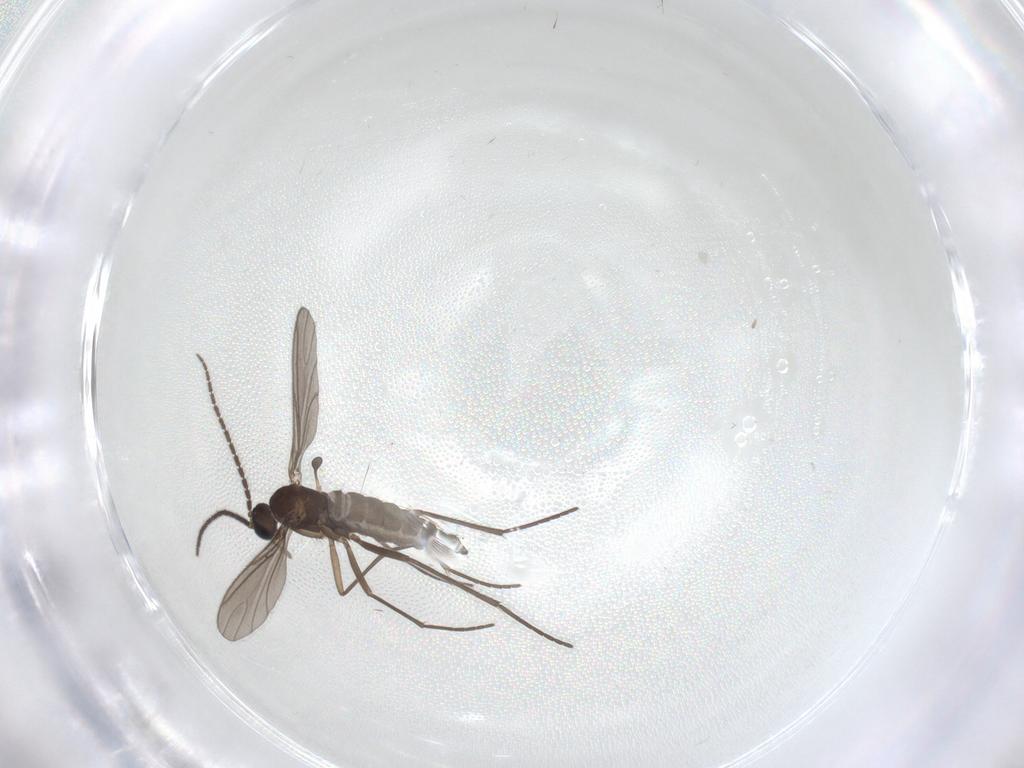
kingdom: Animalia
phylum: Arthropoda
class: Insecta
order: Diptera
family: Sciaridae
